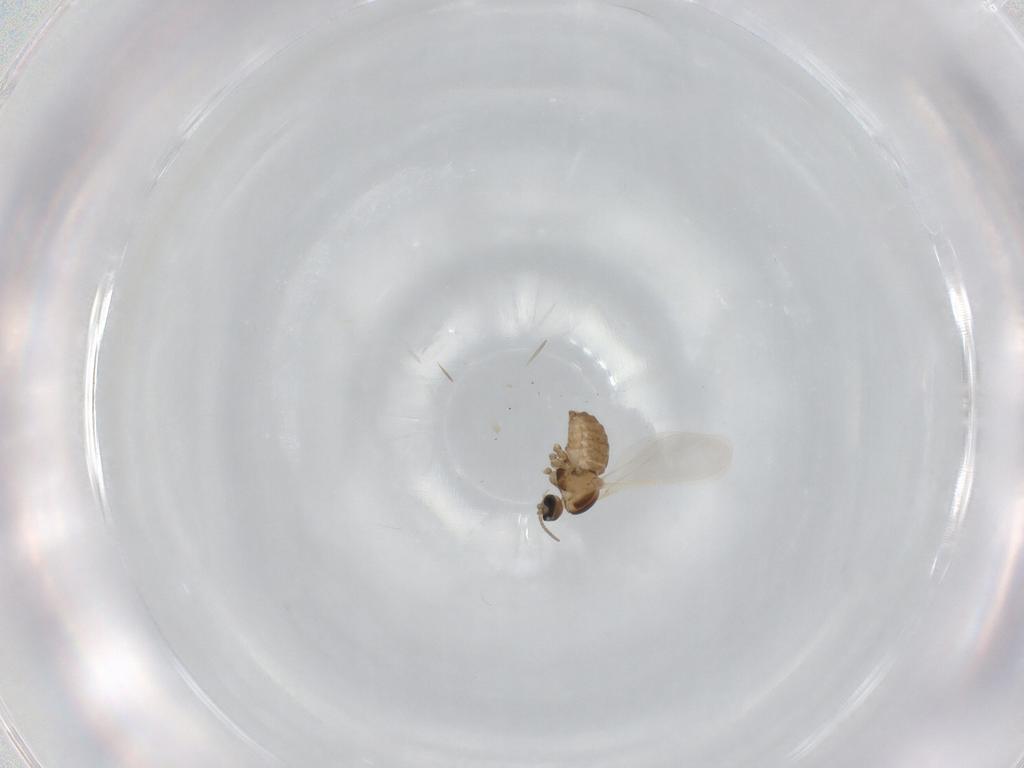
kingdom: Animalia
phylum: Arthropoda
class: Insecta
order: Diptera
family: Cecidomyiidae
